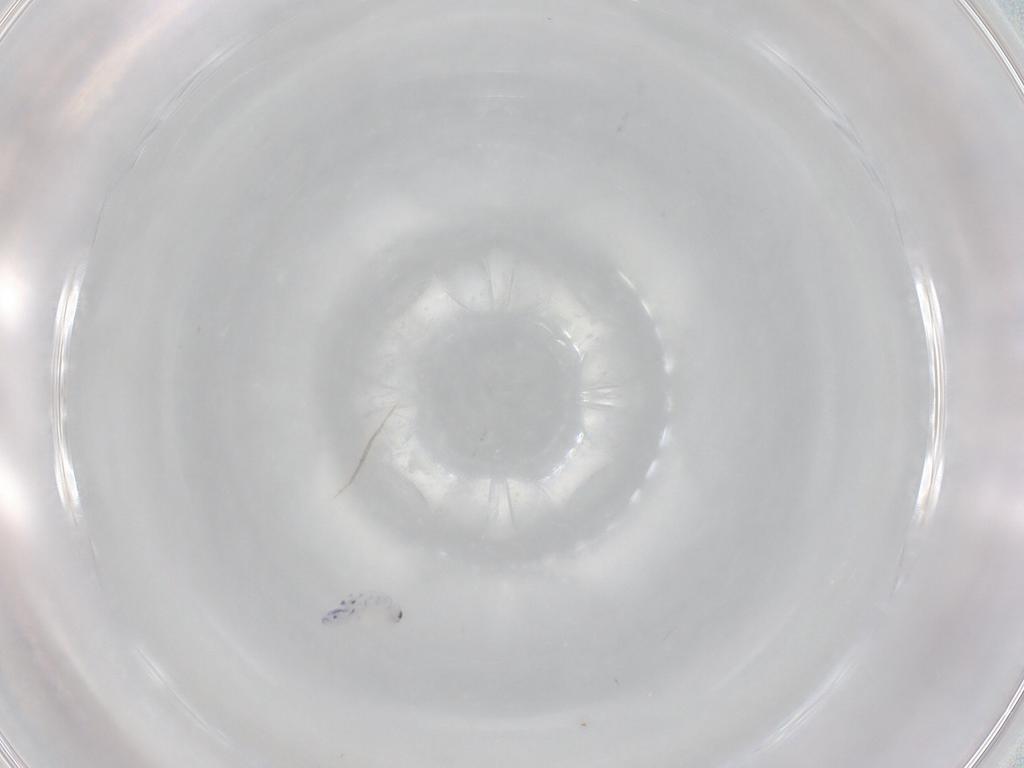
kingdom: Animalia
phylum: Arthropoda
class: Collembola
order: Entomobryomorpha
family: Entomobryidae
